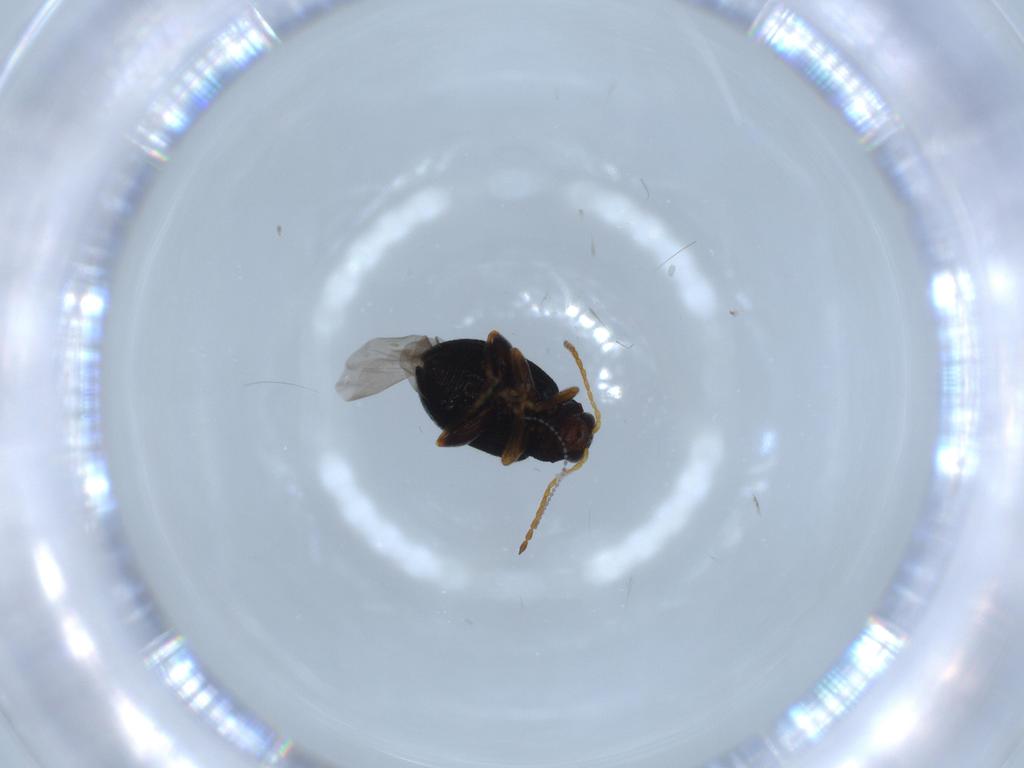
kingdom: Animalia
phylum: Arthropoda
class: Insecta
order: Coleoptera
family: Chrysomelidae
